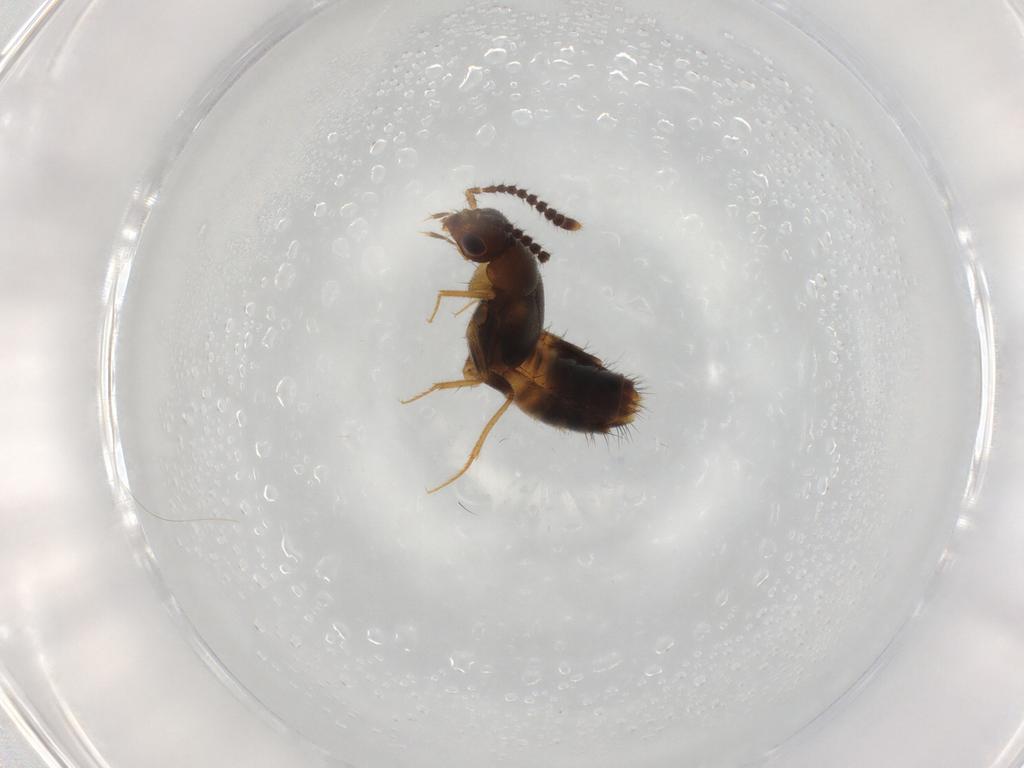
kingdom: Animalia
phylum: Arthropoda
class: Insecta
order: Coleoptera
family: Staphylinidae
